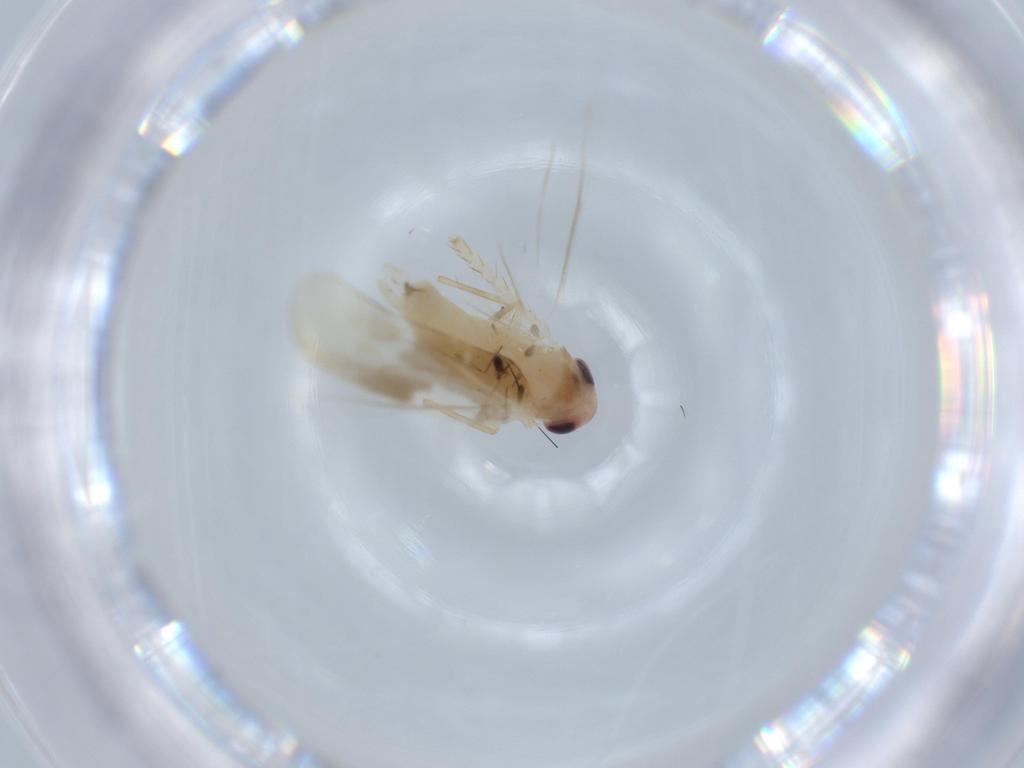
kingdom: Animalia
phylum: Arthropoda
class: Insecta
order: Hemiptera
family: Cicadellidae
